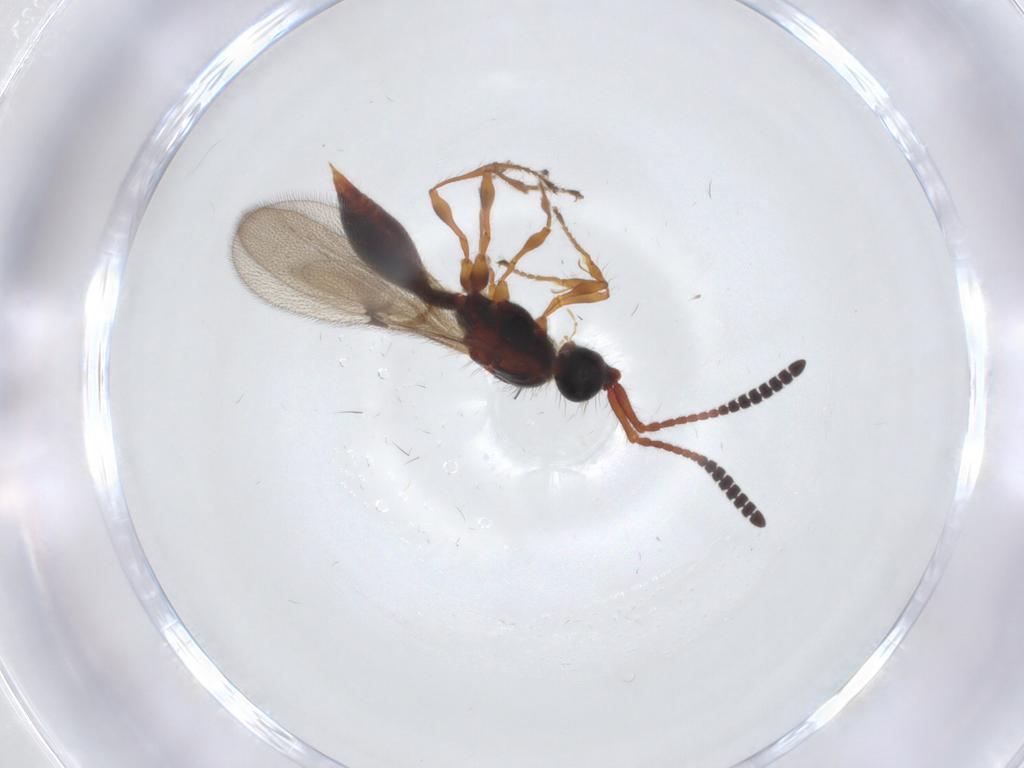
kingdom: Animalia
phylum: Arthropoda
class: Insecta
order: Hymenoptera
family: Diapriidae
